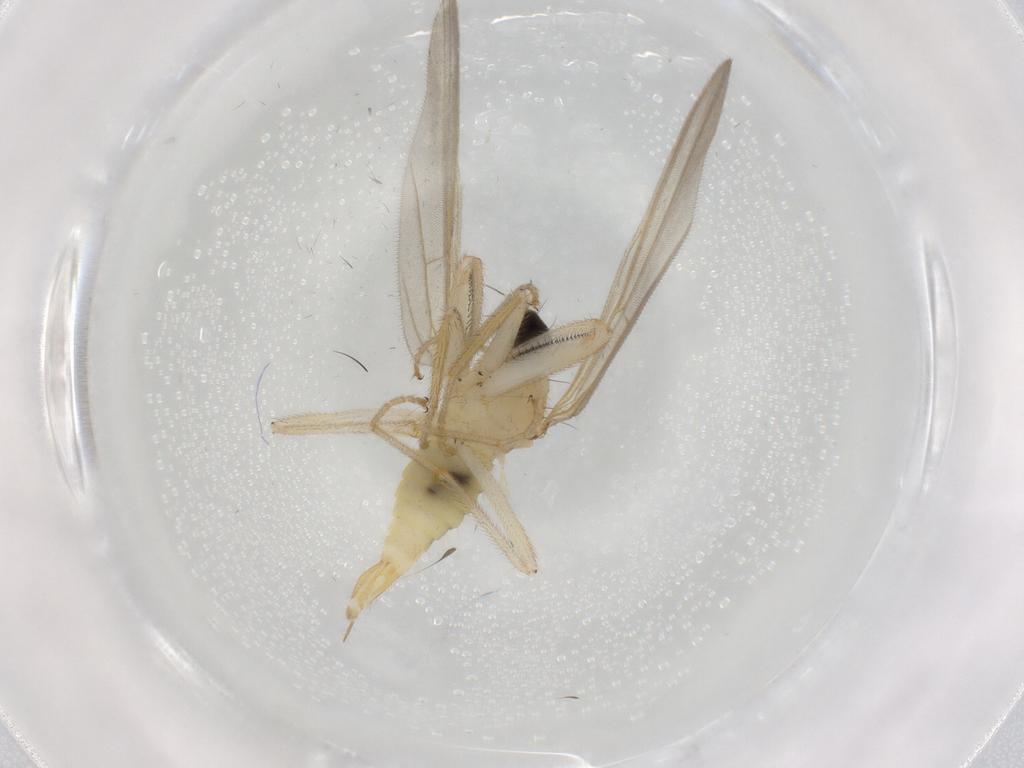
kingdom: Animalia
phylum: Arthropoda
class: Insecta
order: Diptera
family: Hybotidae
